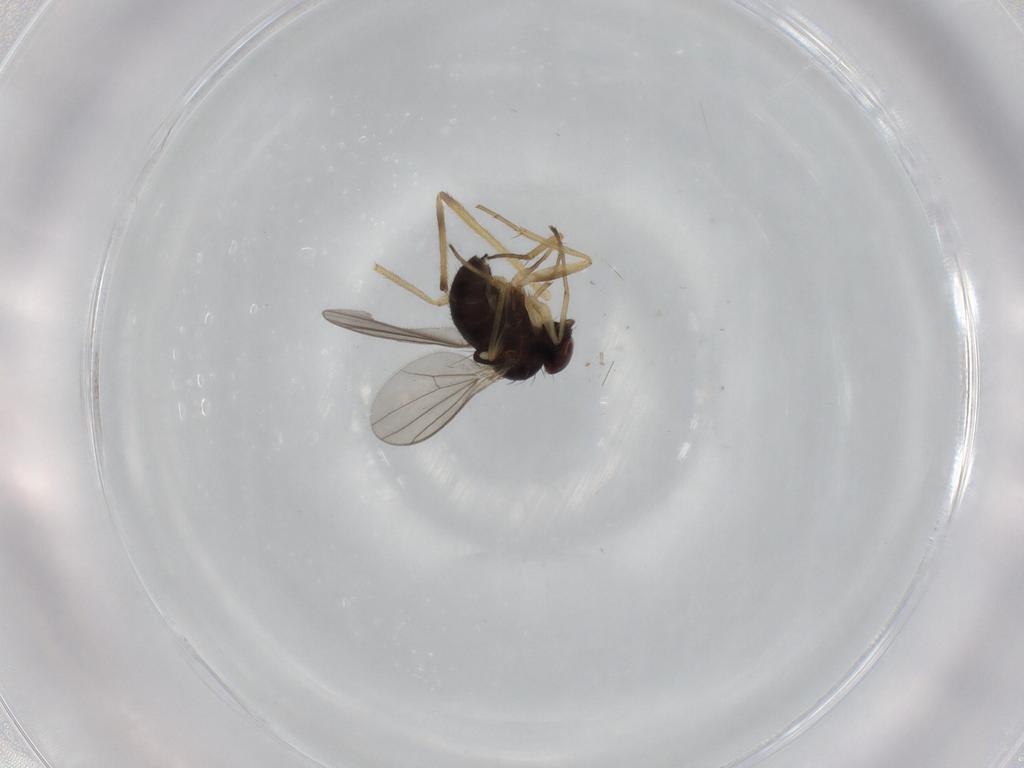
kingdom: Animalia
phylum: Arthropoda
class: Insecta
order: Diptera
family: Dolichopodidae
